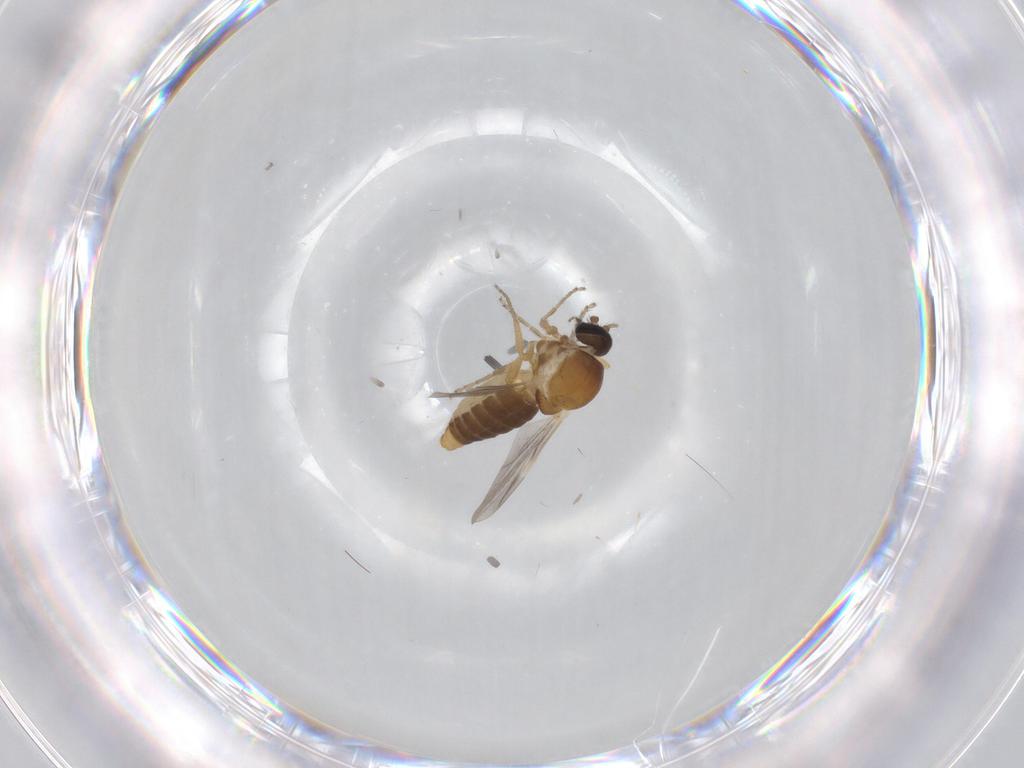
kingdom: Animalia
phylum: Arthropoda
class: Insecta
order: Diptera
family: Ceratopogonidae
